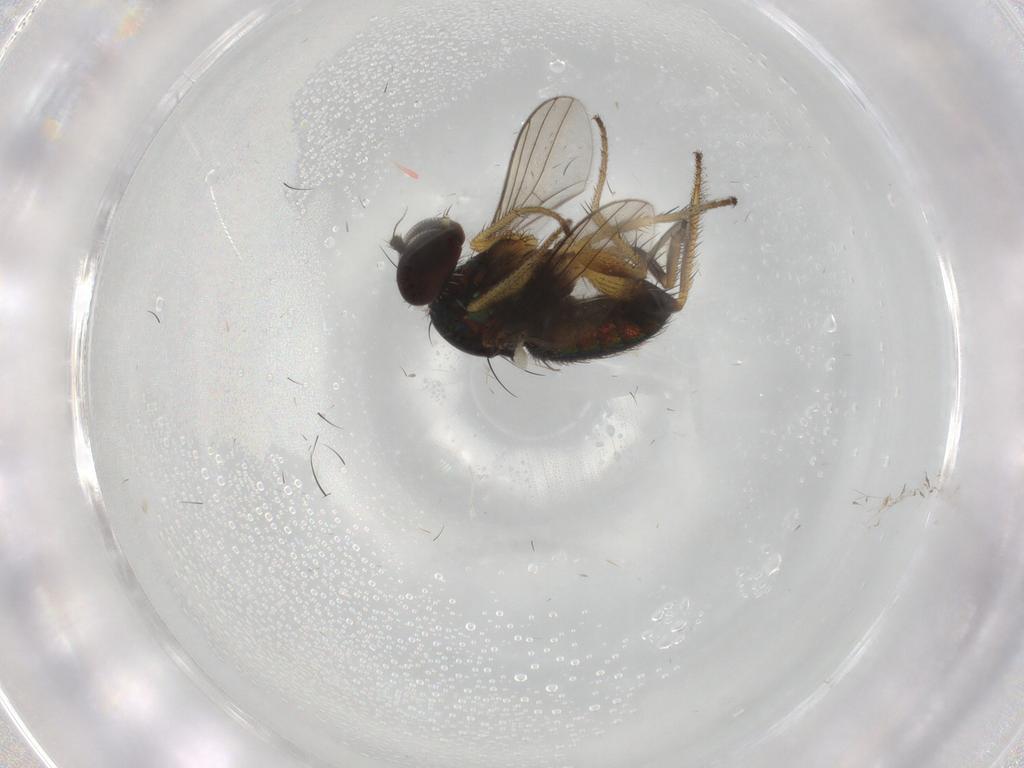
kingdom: Animalia
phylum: Arthropoda
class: Insecta
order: Diptera
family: Dolichopodidae
